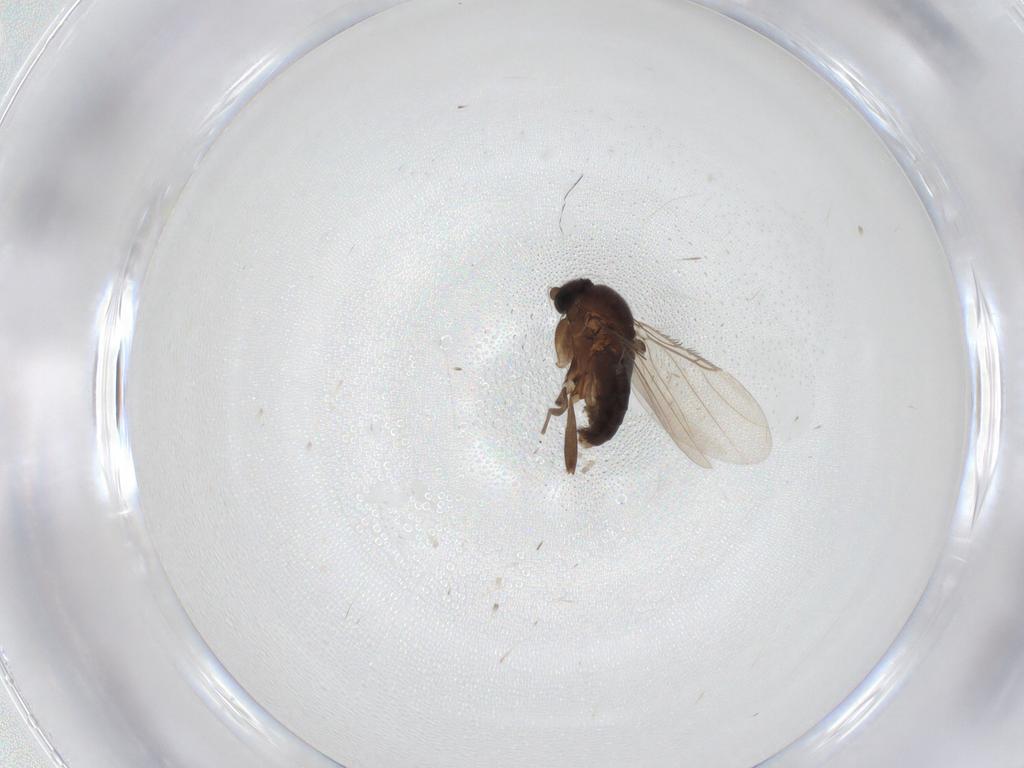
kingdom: Animalia
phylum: Arthropoda
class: Insecta
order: Diptera
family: Phoridae
